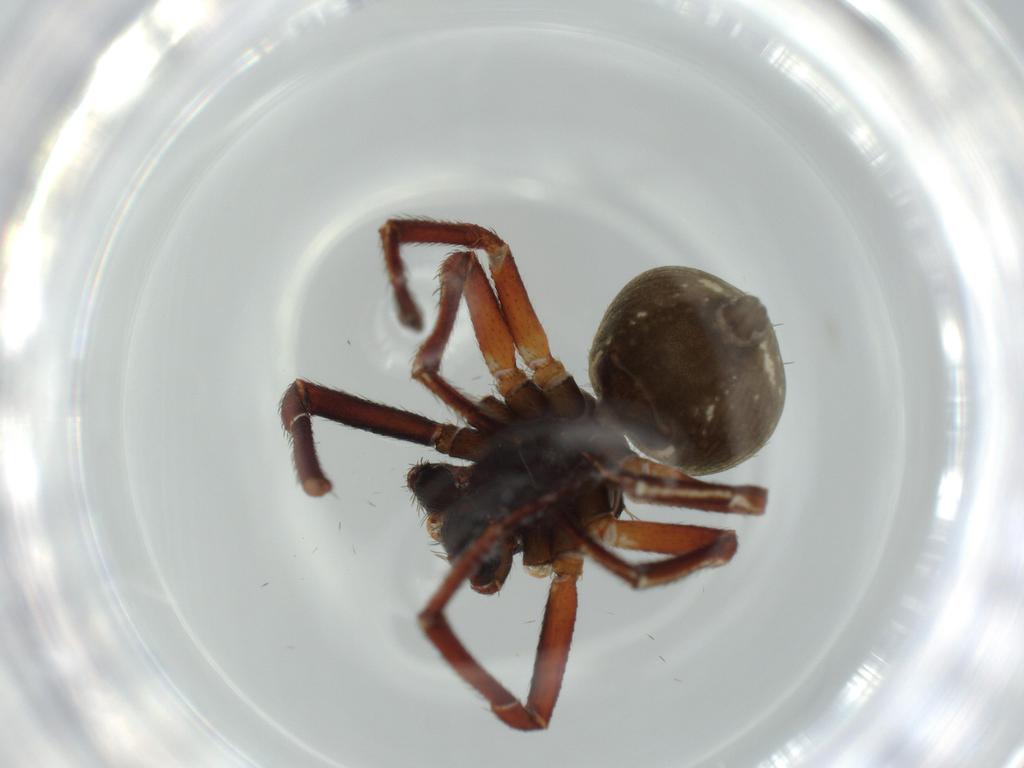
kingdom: Animalia
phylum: Arthropoda
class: Arachnida
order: Araneae
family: Thomisidae
